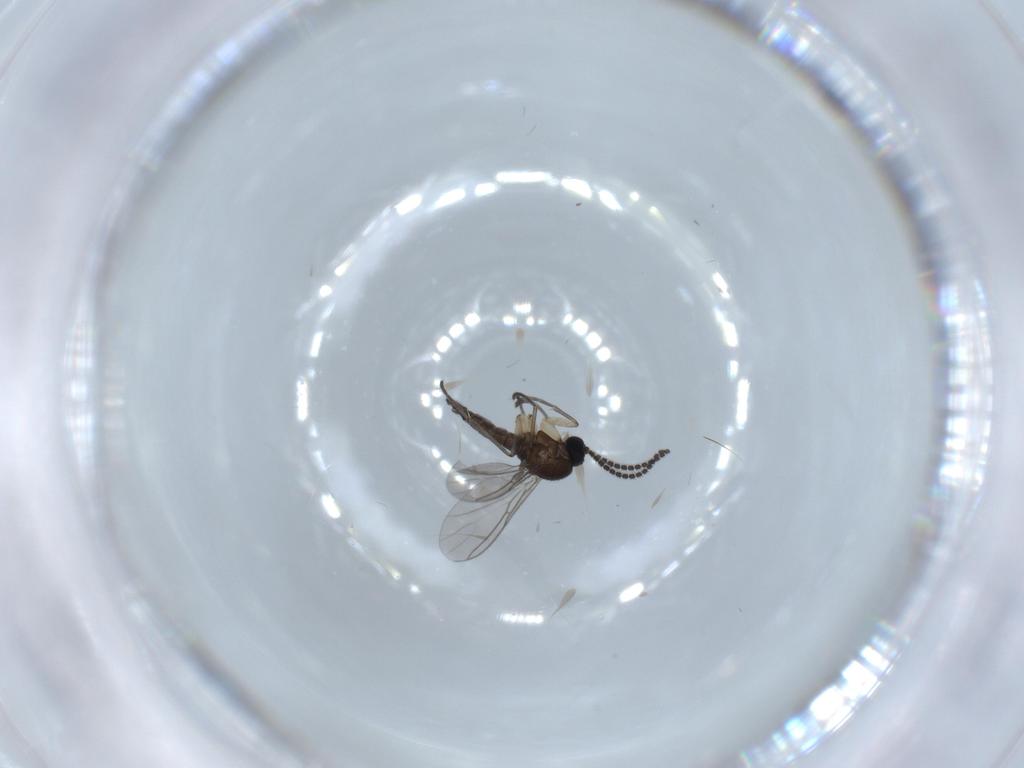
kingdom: Animalia
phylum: Arthropoda
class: Insecta
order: Diptera
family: Sciaridae
